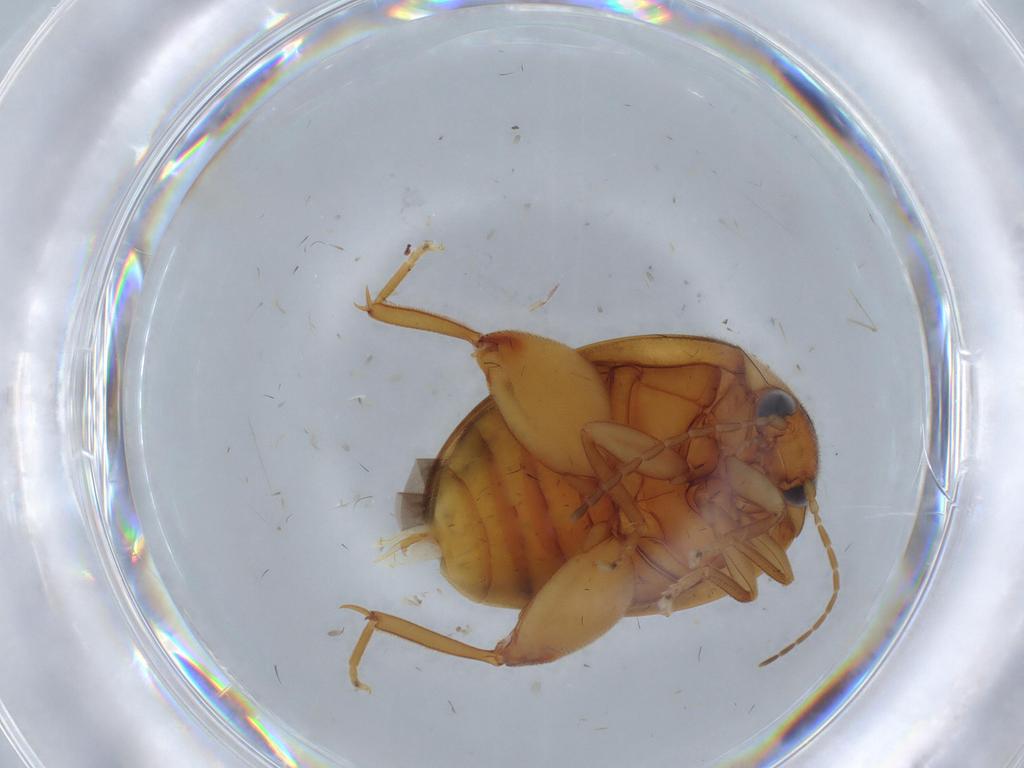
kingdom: Animalia
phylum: Arthropoda
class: Insecta
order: Coleoptera
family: Scirtidae
